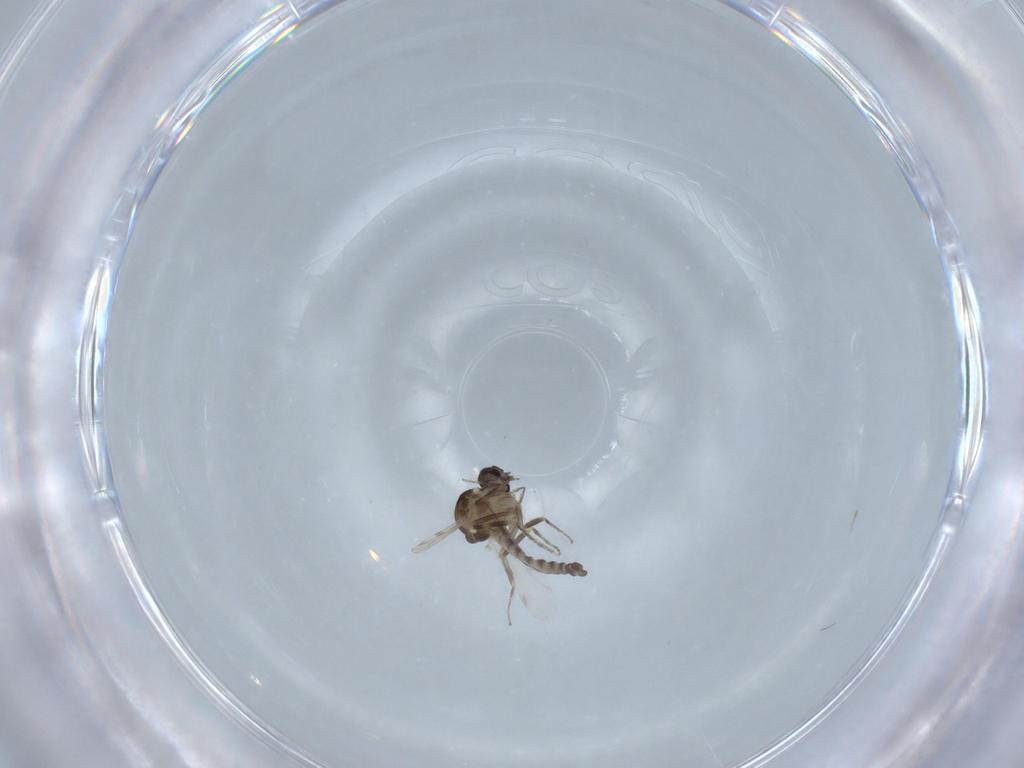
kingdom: Animalia
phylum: Arthropoda
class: Insecta
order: Diptera
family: Ceratopogonidae
